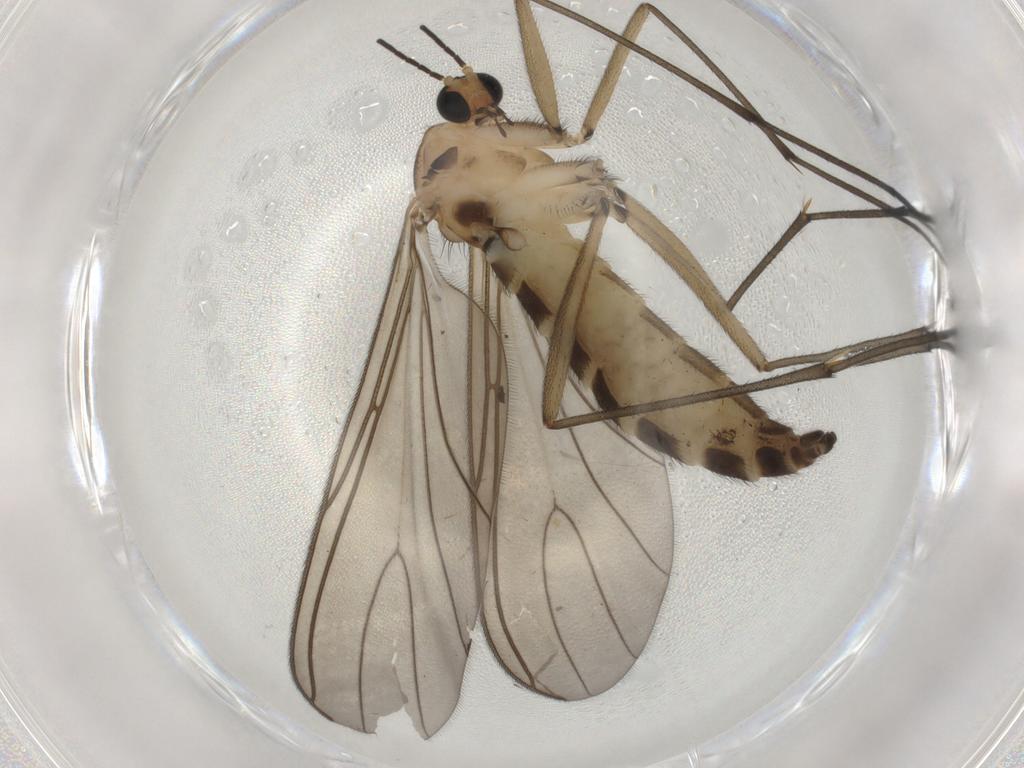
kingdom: Animalia
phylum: Arthropoda
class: Insecta
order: Diptera
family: Sciaridae
